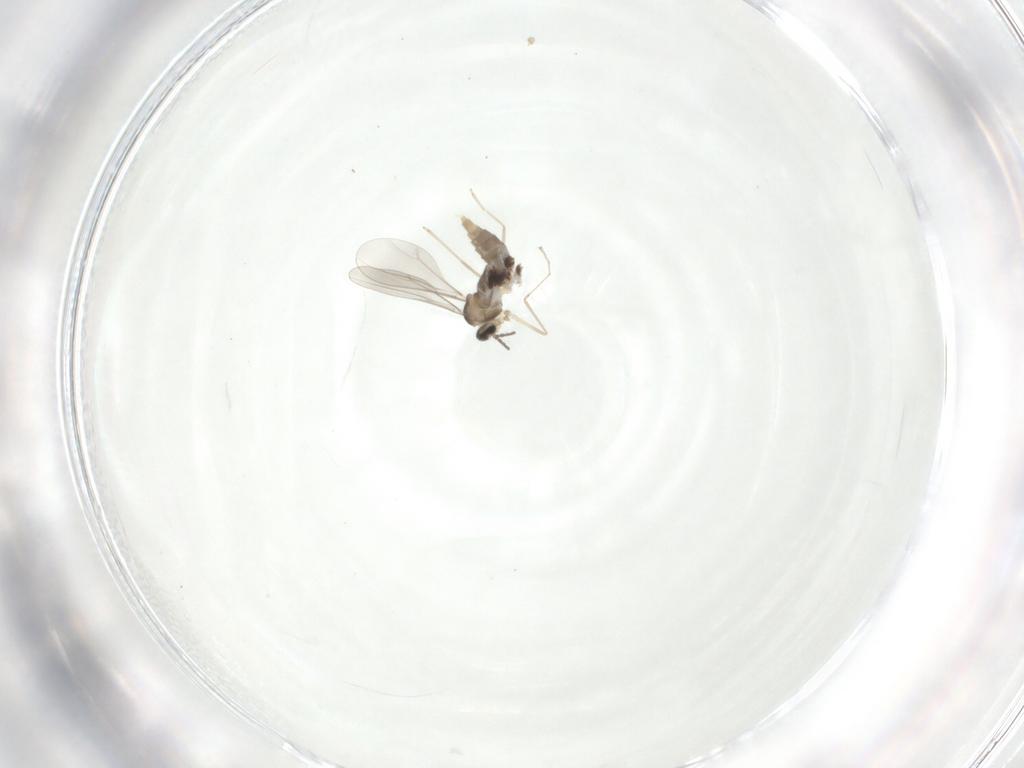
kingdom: Animalia
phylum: Arthropoda
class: Insecta
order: Diptera
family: Cecidomyiidae
